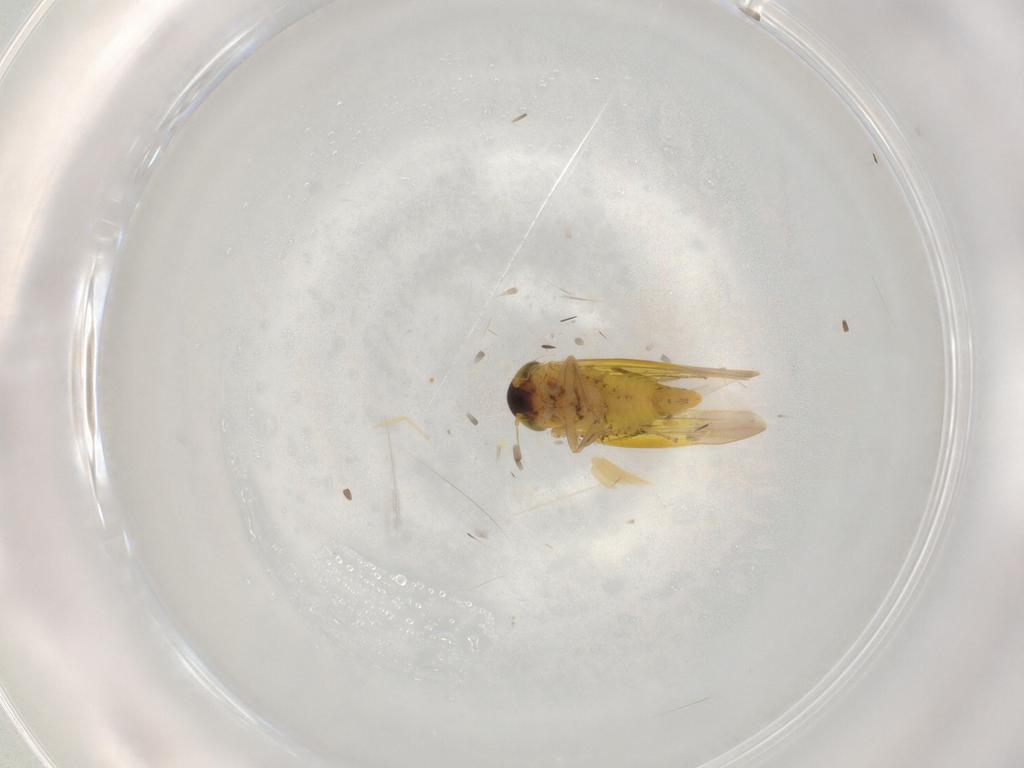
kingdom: Animalia
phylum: Arthropoda
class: Insecta
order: Hemiptera
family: Cicadellidae
